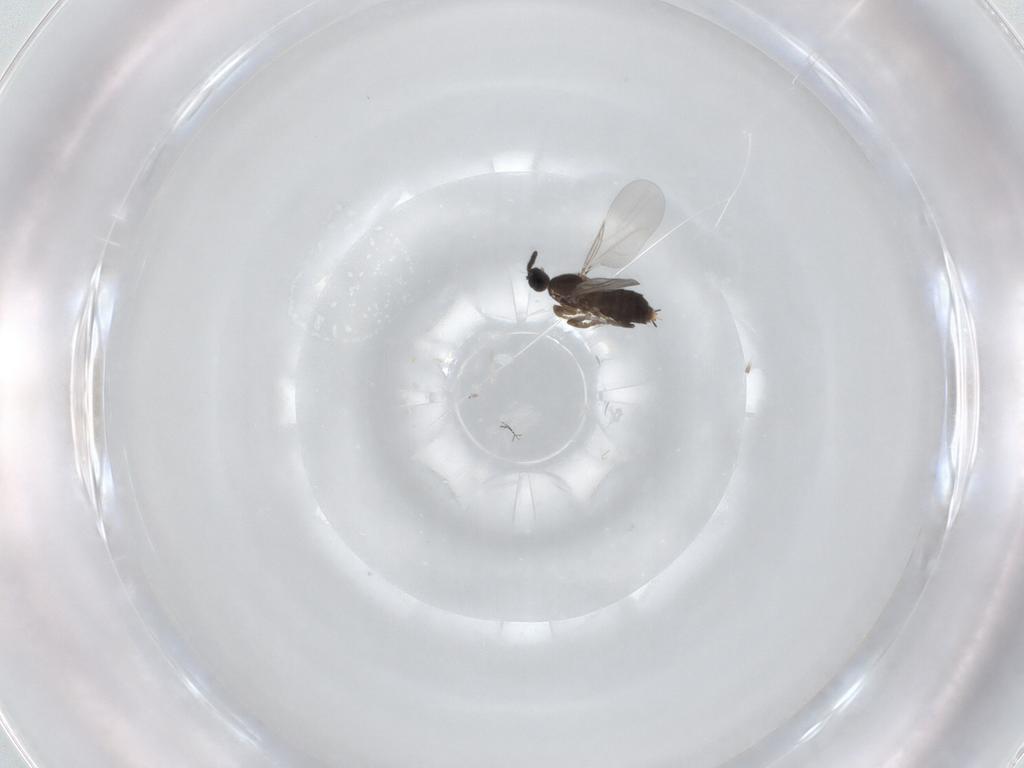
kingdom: Animalia
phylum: Arthropoda
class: Insecta
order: Diptera
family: Scatopsidae
